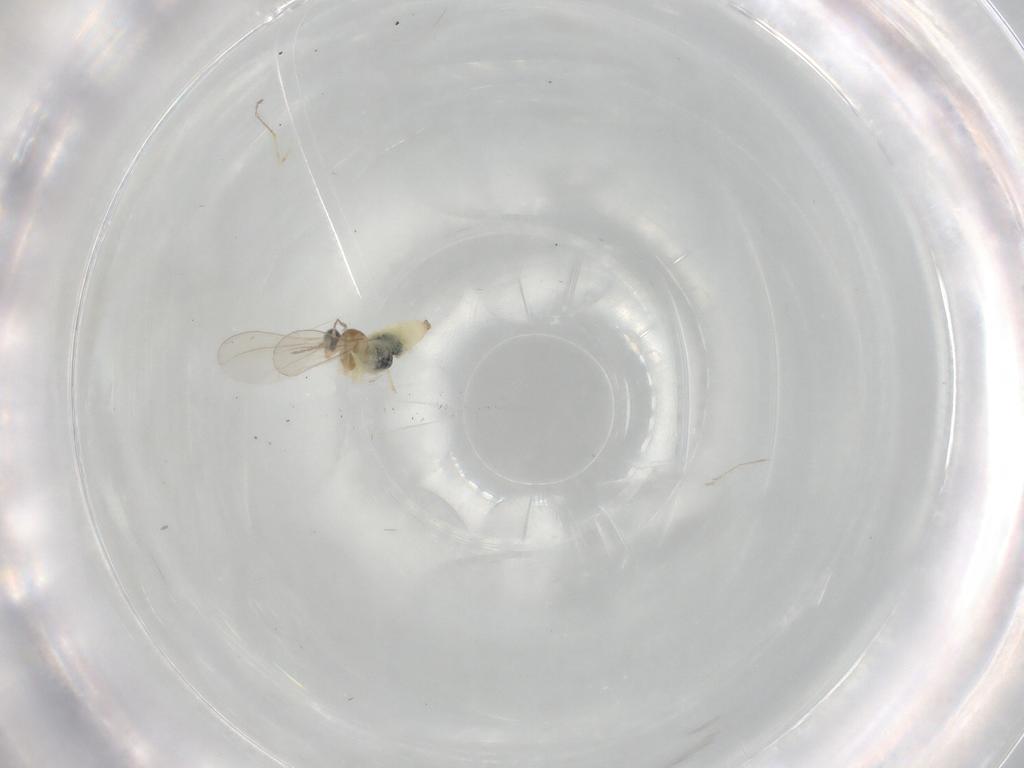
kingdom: Animalia
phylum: Arthropoda
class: Insecta
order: Diptera
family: Cecidomyiidae
